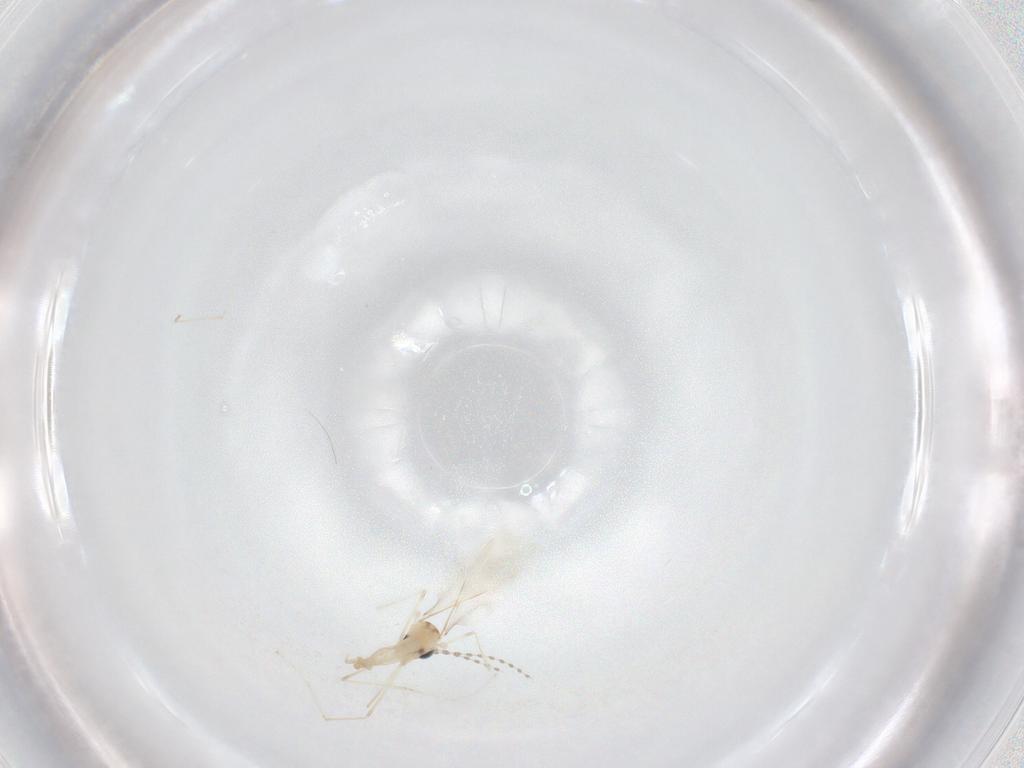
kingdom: Animalia
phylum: Arthropoda
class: Insecta
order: Diptera
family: Cecidomyiidae
